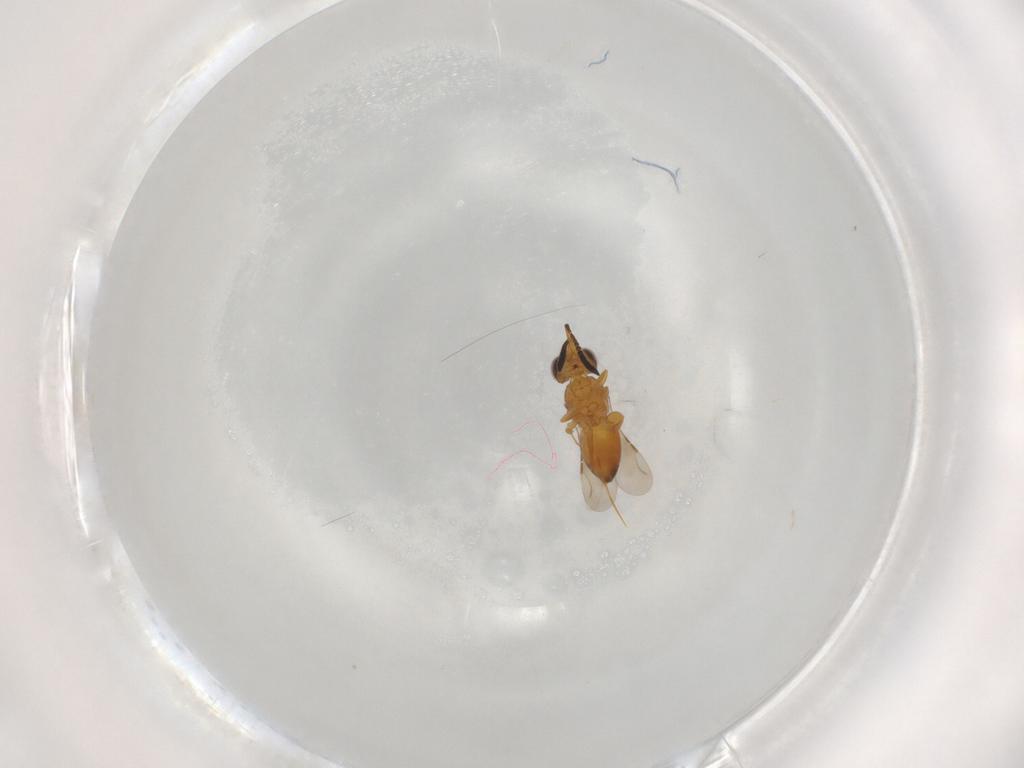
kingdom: Animalia
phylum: Arthropoda
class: Insecta
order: Hymenoptera
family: Ceraphronidae
